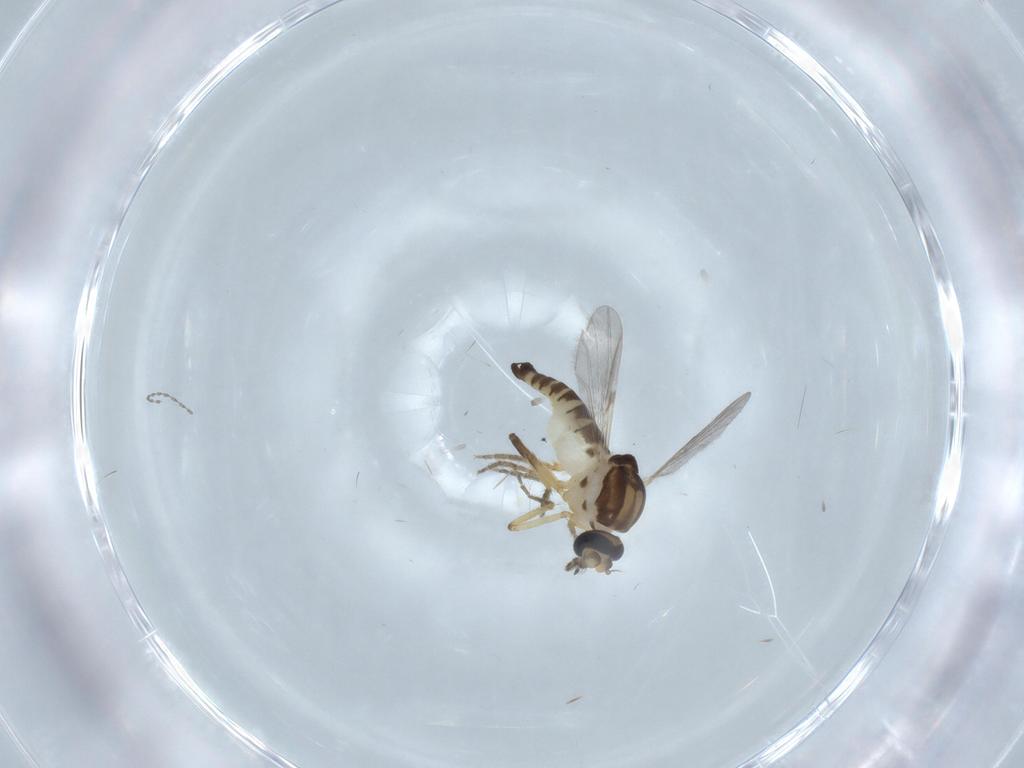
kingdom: Animalia
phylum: Arthropoda
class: Insecta
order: Diptera
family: Ceratopogonidae
